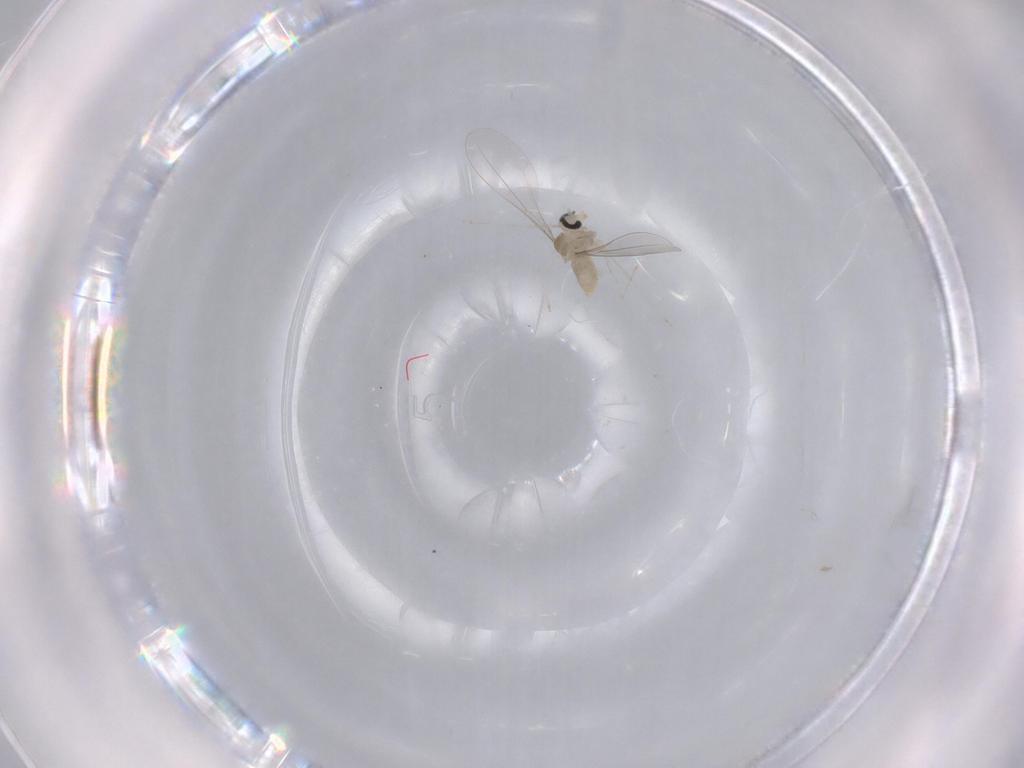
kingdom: Animalia
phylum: Arthropoda
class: Insecta
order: Diptera
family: Cecidomyiidae
